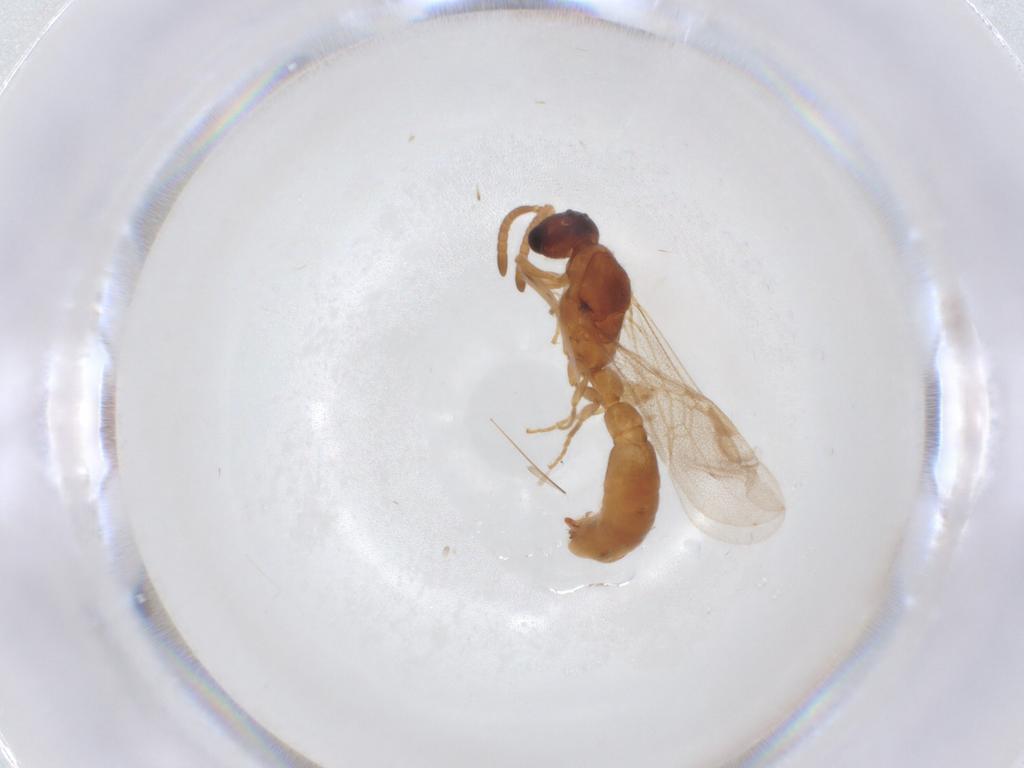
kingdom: Animalia
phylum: Arthropoda
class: Insecta
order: Hymenoptera
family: Formicidae
